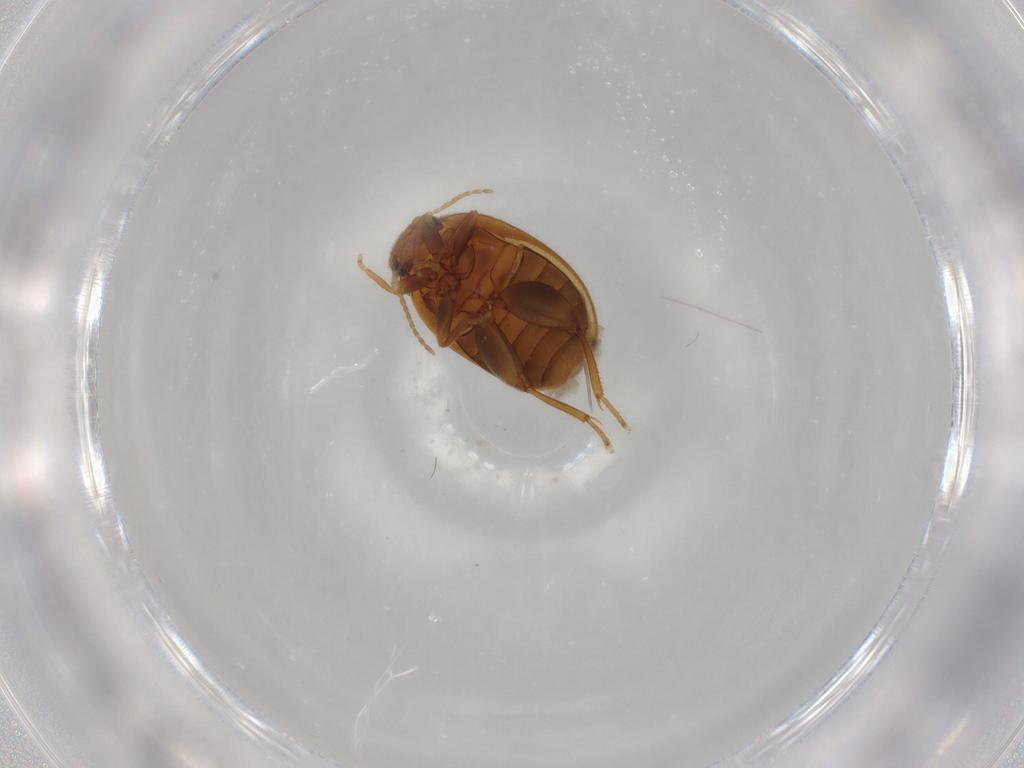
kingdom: Animalia
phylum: Arthropoda
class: Insecta
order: Coleoptera
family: Scirtidae
